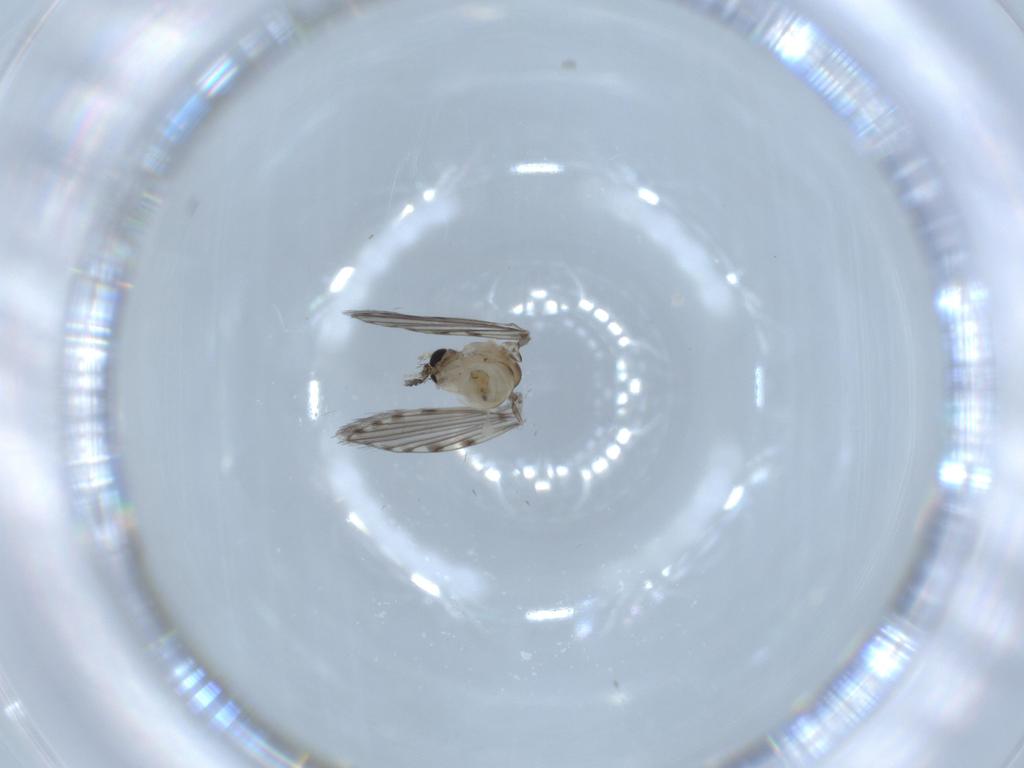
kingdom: Animalia
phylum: Arthropoda
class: Insecta
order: Diptera
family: Psychodidae
